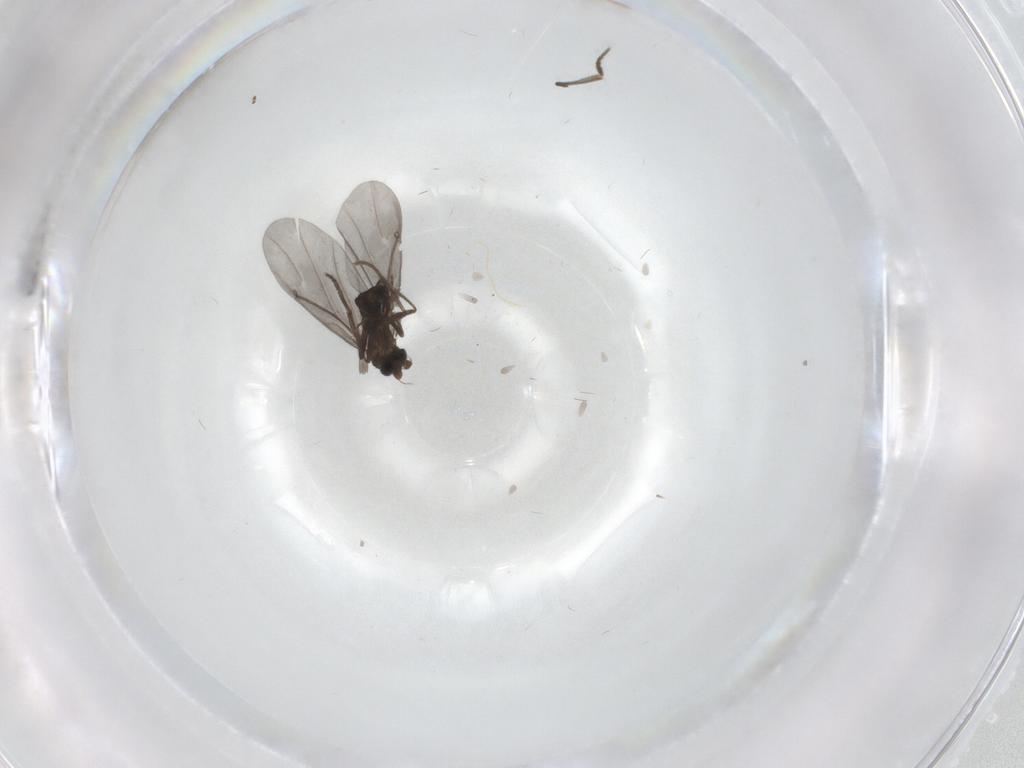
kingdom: Animalia
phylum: Arthropoda
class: Insecta
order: Diptera
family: Phoridae
